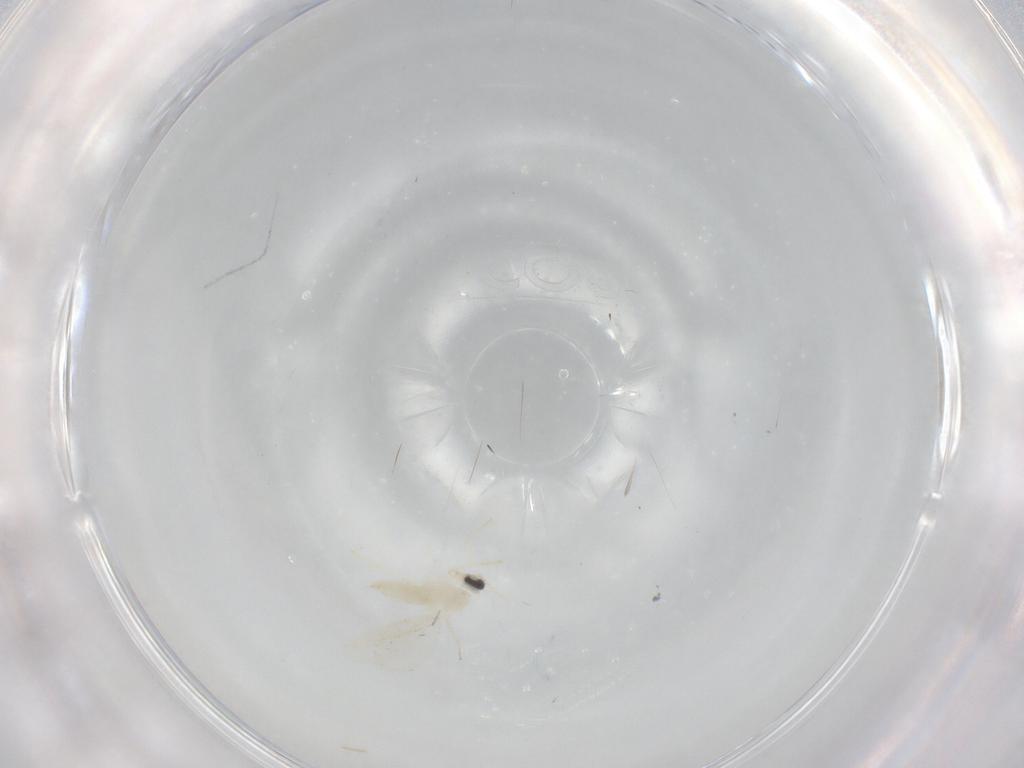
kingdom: Animalia
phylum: Arthropoda
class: Insecta
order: Diptera
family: Cecidomyiidae
